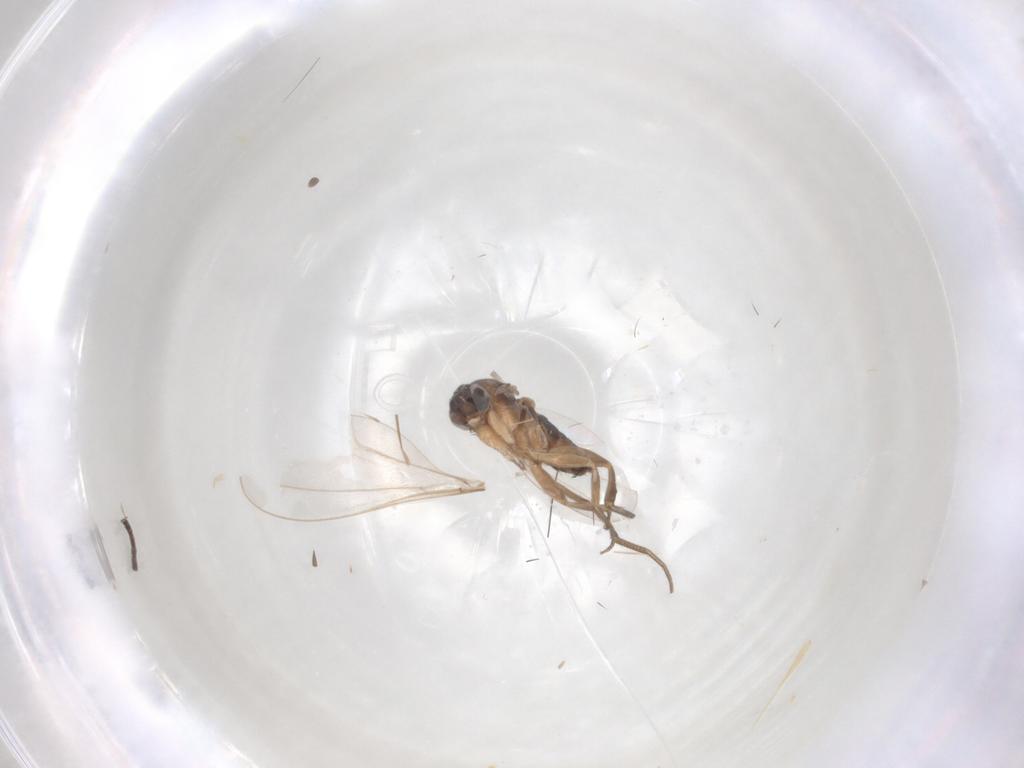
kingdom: Animalia
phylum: Arthropoda
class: Insecta
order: Diptera
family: Phoridae
